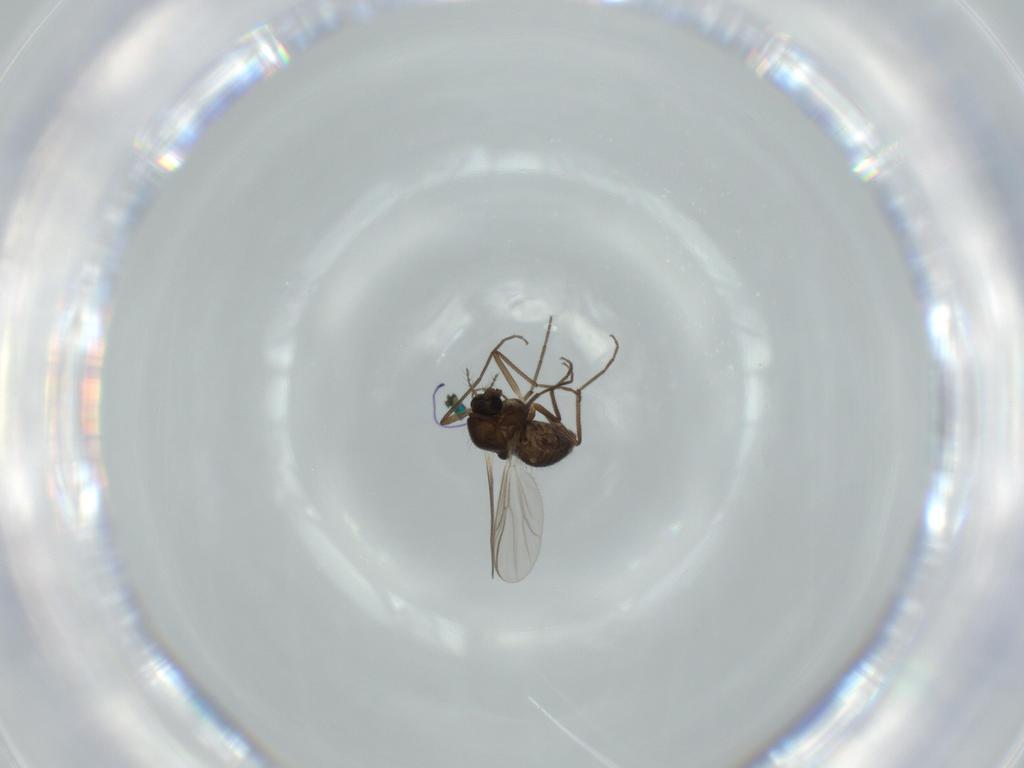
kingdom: Animalia
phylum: Arthropoda
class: Insecta
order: Diptera
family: Chironomidae
